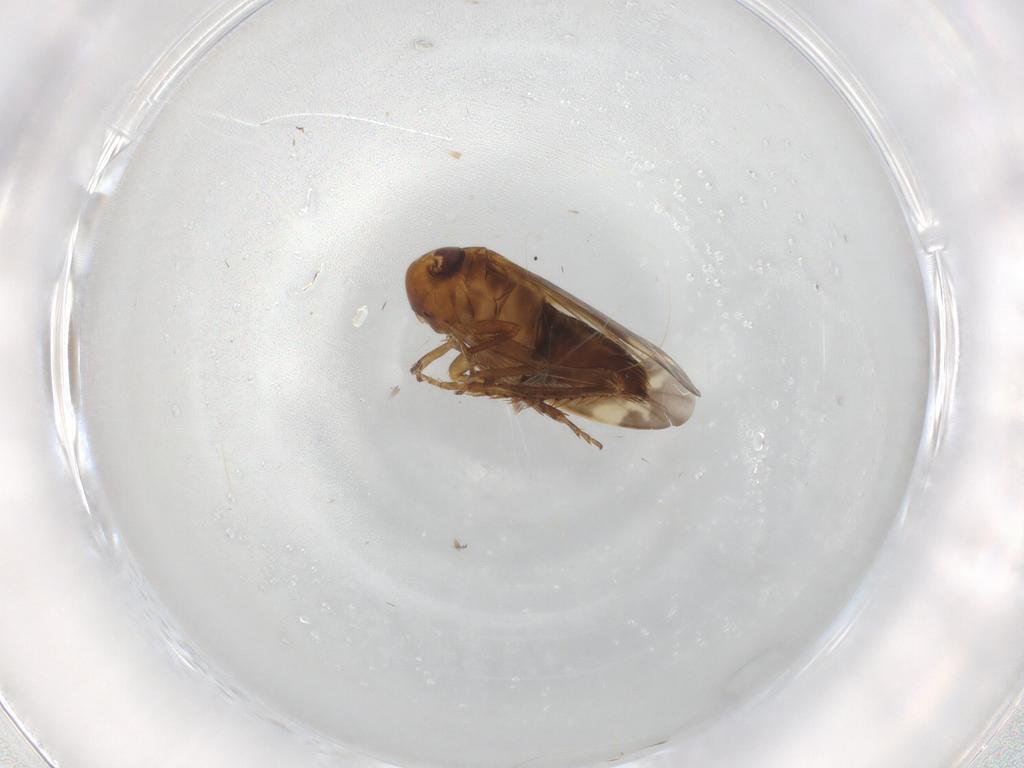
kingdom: Animalia
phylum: Arthropoda
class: Insecta
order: Hemiptera
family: Cicadellidae
